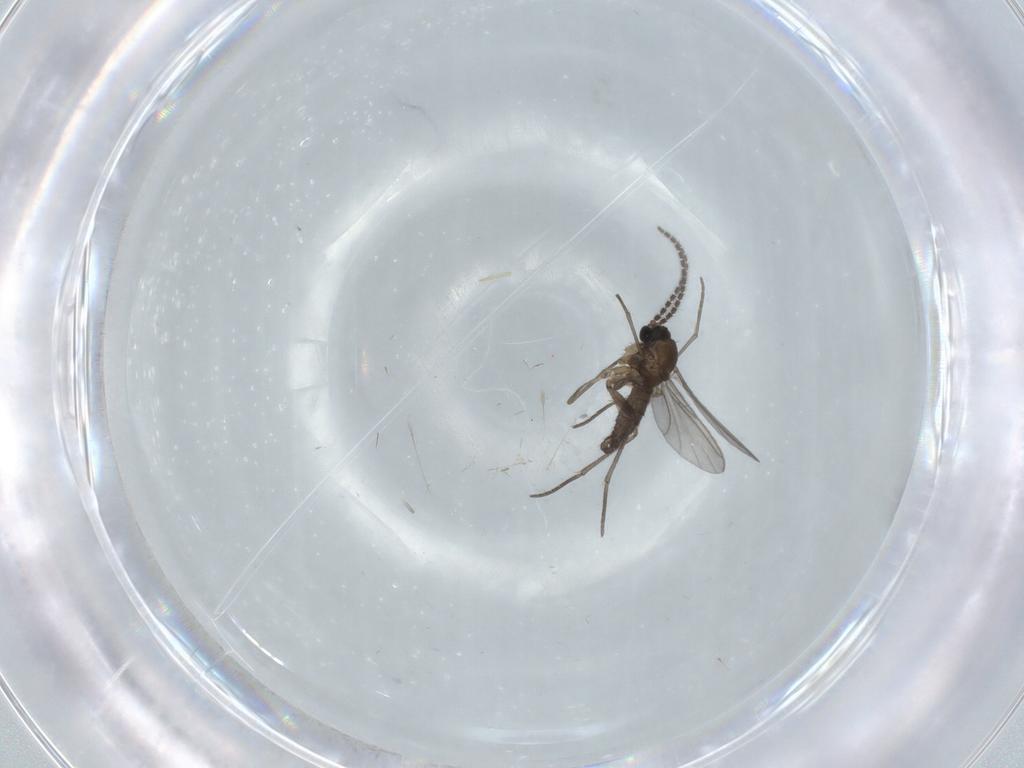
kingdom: Animalia
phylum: Arthropoda
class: Insecta
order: Diptera
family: Sciaridae
